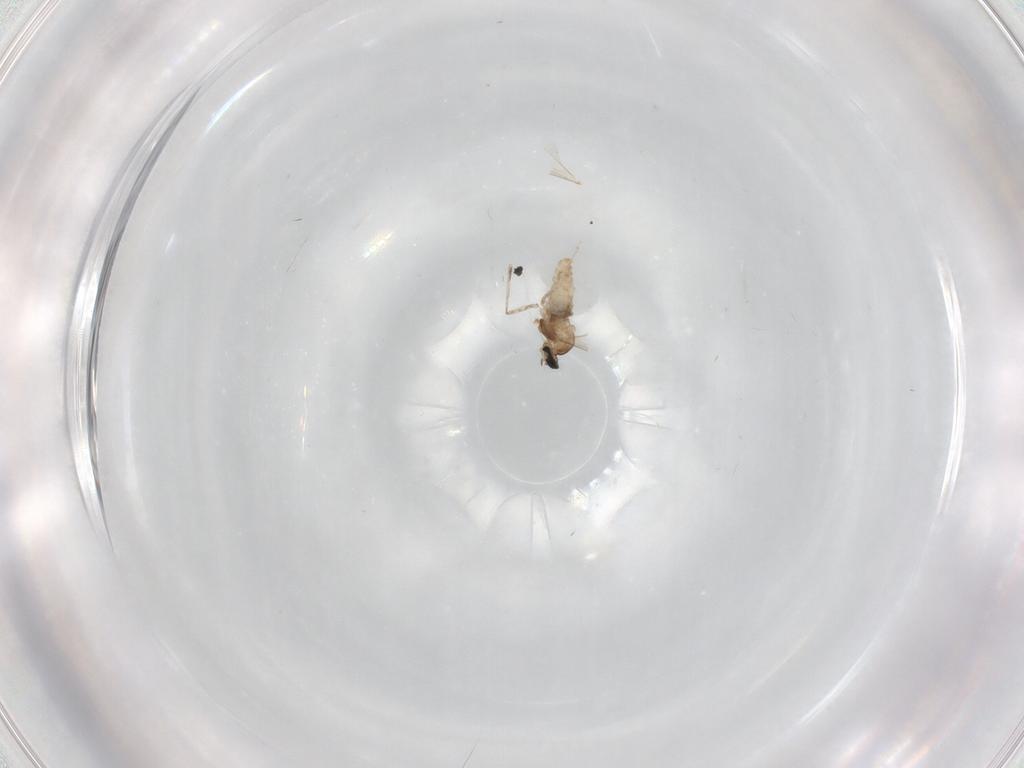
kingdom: Animalia
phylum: Arthropoda
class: Insecta
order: Diptera
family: Cecidomyiidae
